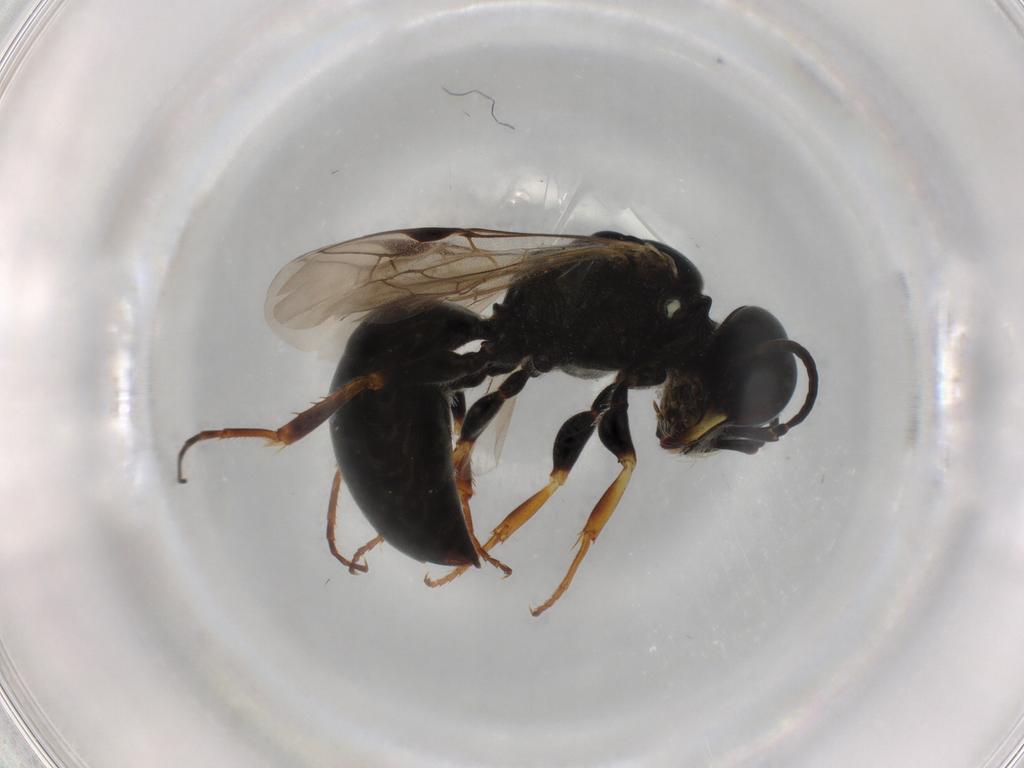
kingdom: Animalia
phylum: Arthropoda
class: Insecta
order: Hymenoptera
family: Crabronidae
